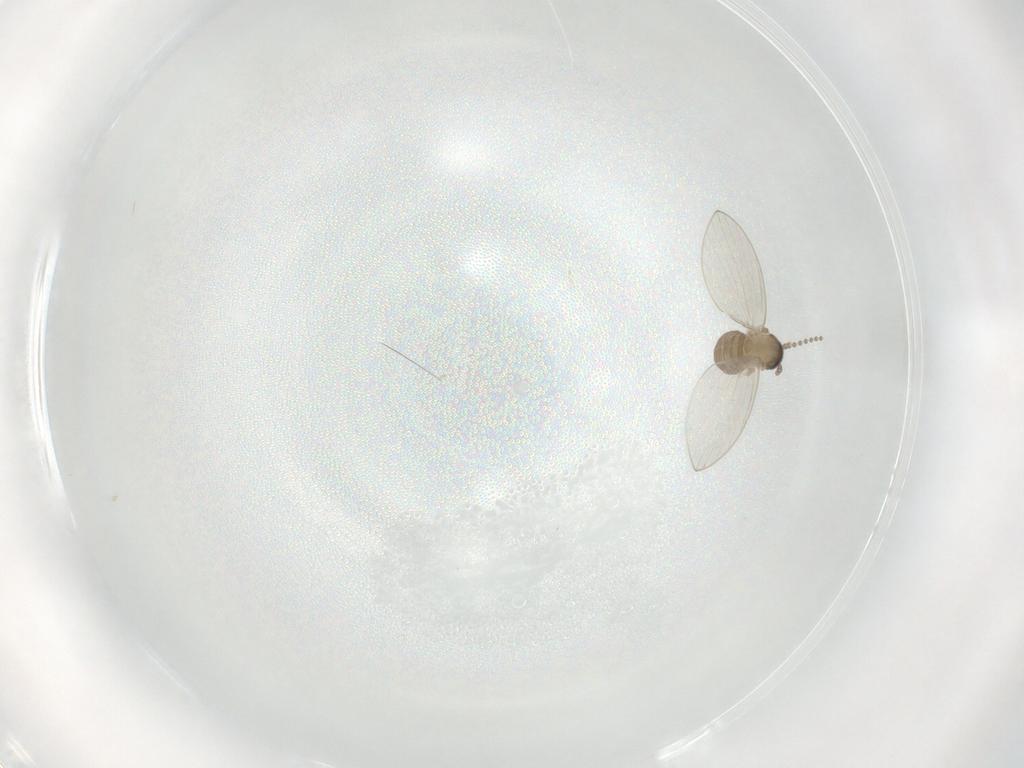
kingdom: Animalia
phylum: Arthropoda
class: Insecta
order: Diptera
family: Psychodidae
